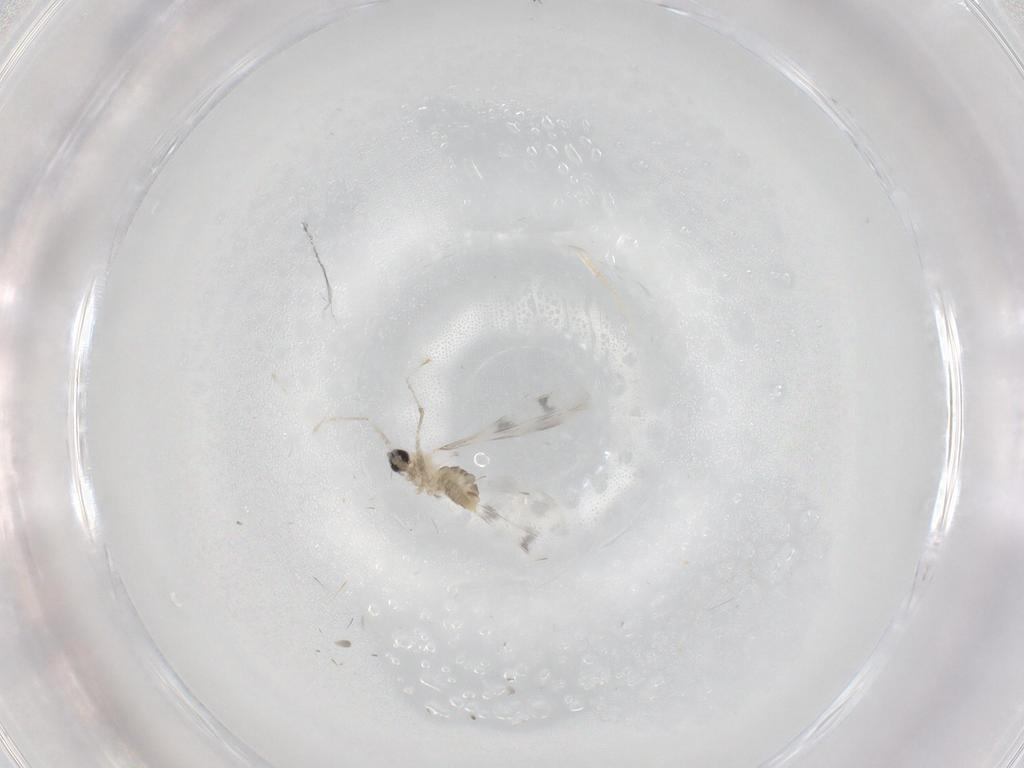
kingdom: Animalia
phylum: Arthropoda
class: Insecta
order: Diptera
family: Cecidomyiidae
